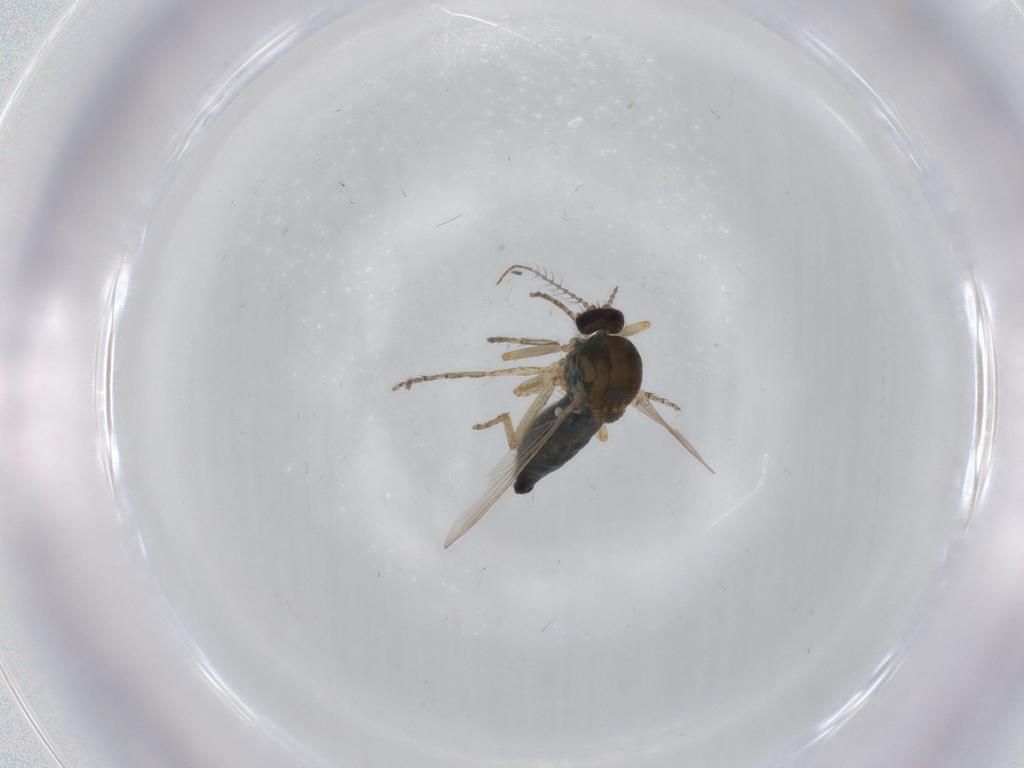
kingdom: Animalia
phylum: Arthropoda
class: Insecta
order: Diptera
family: Ceratopogonidae
